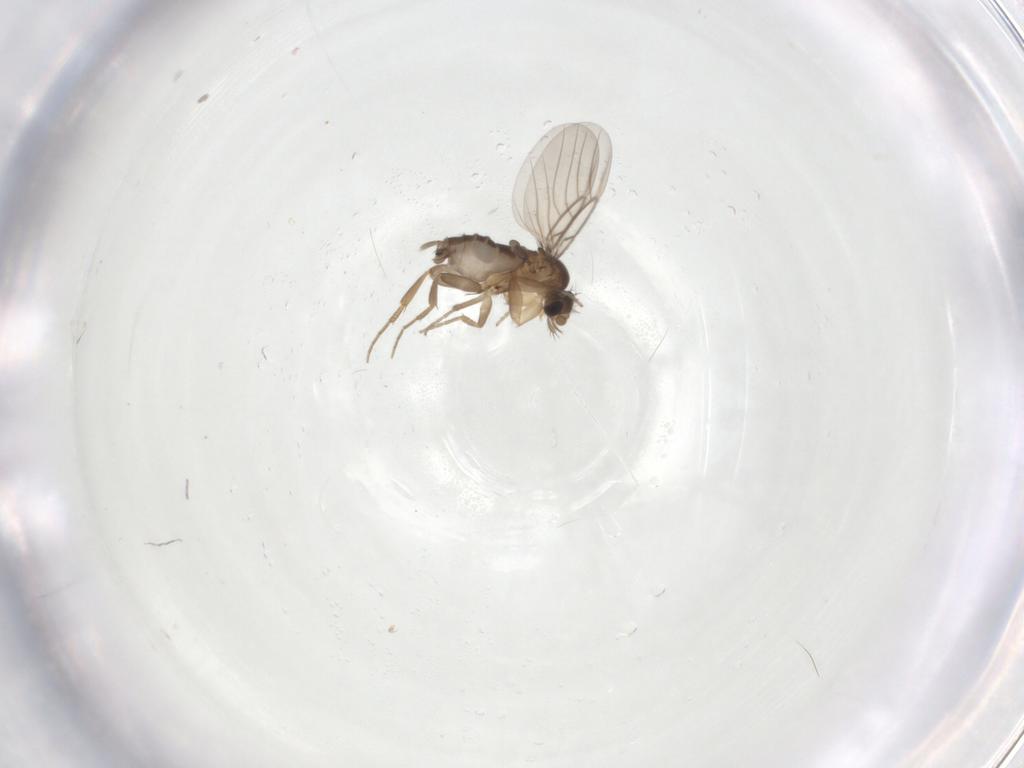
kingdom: Animalia
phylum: Arthropoda
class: Insecta
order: Diptera
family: Phoridae
